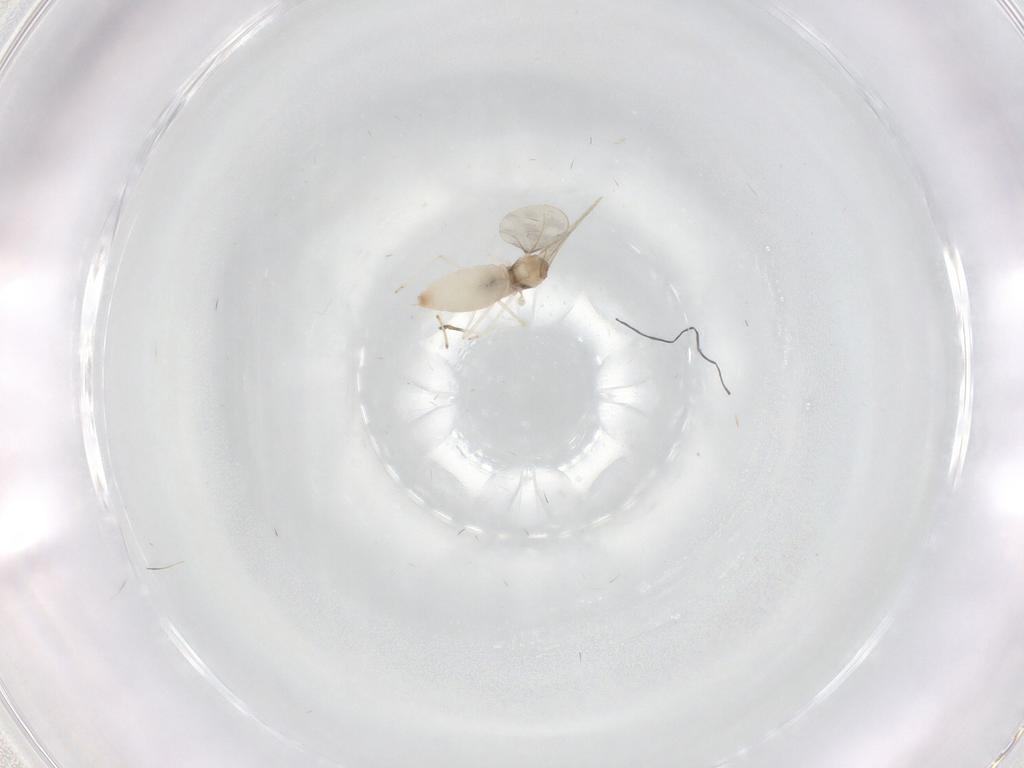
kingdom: Animalia
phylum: Arthropoda
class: Insecta
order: Diptera
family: Psychodidae
